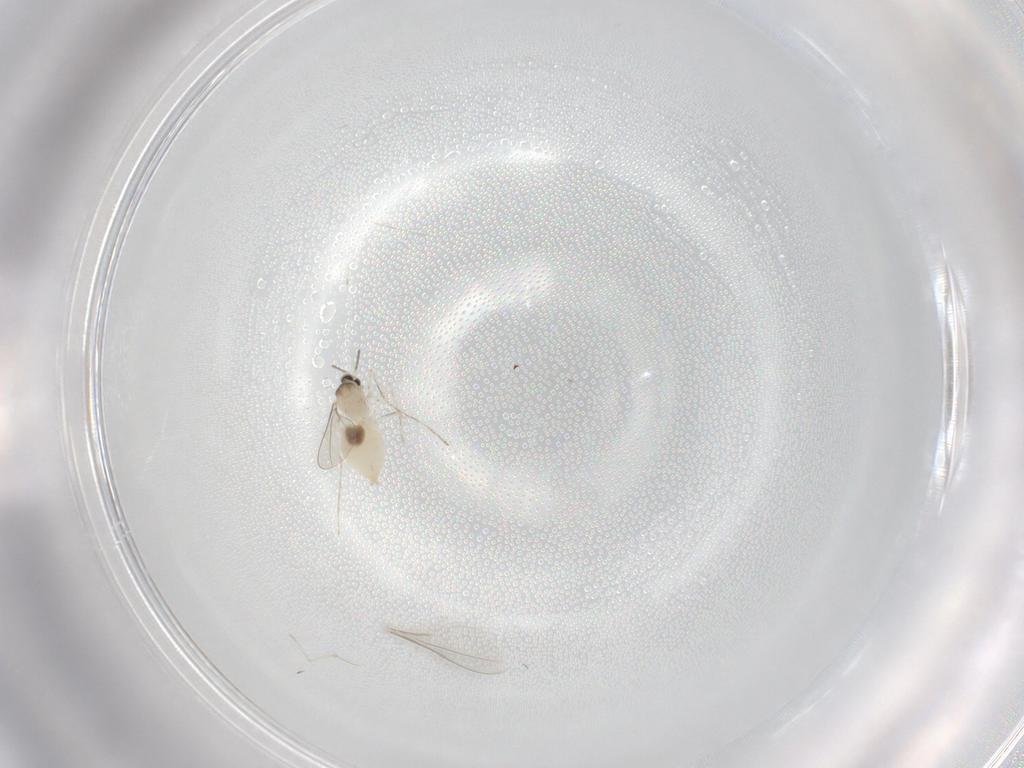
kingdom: Animalia
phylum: Arthropoda
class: Insecta
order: Diptera
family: Cecidomyiidae
